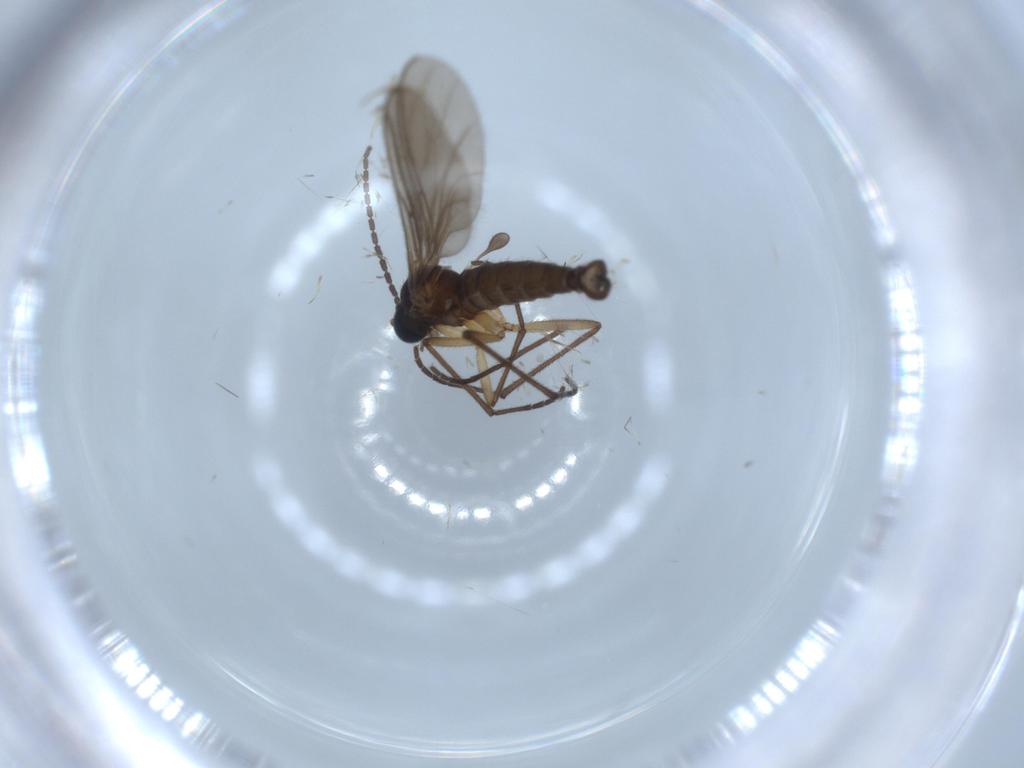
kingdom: Animalia
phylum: Arthropoda
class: Insecta
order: Diptera
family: Sciaridae
